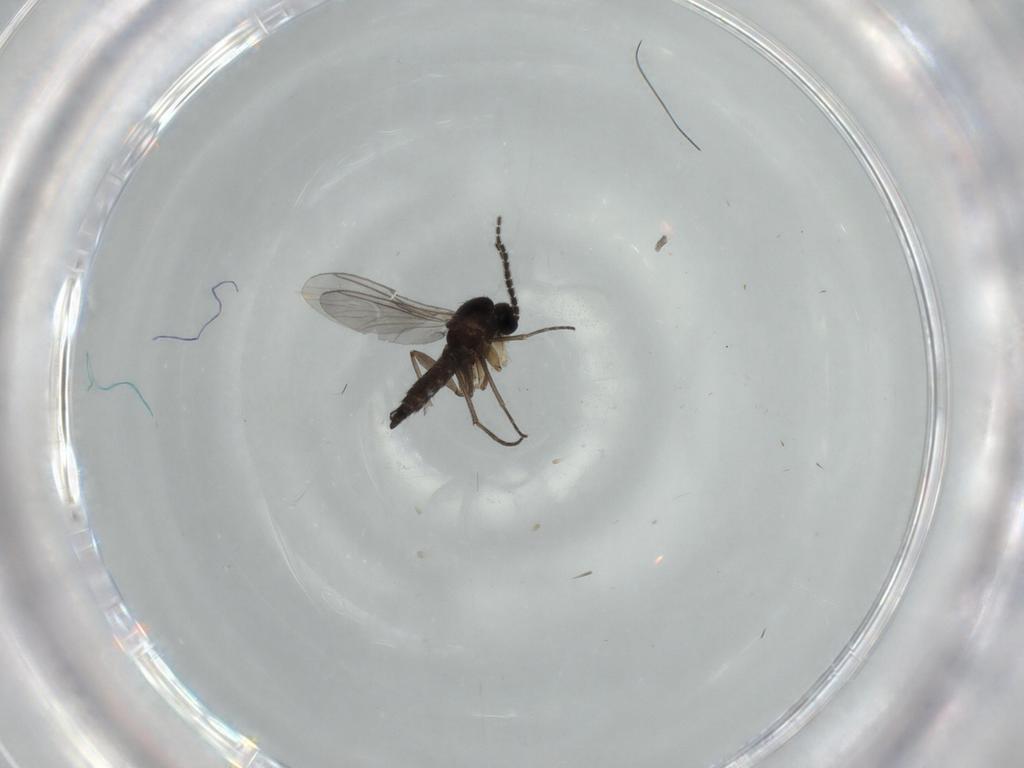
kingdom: Animalia
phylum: Arthropoda
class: Insecta
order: Diptera
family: Sciaridae
